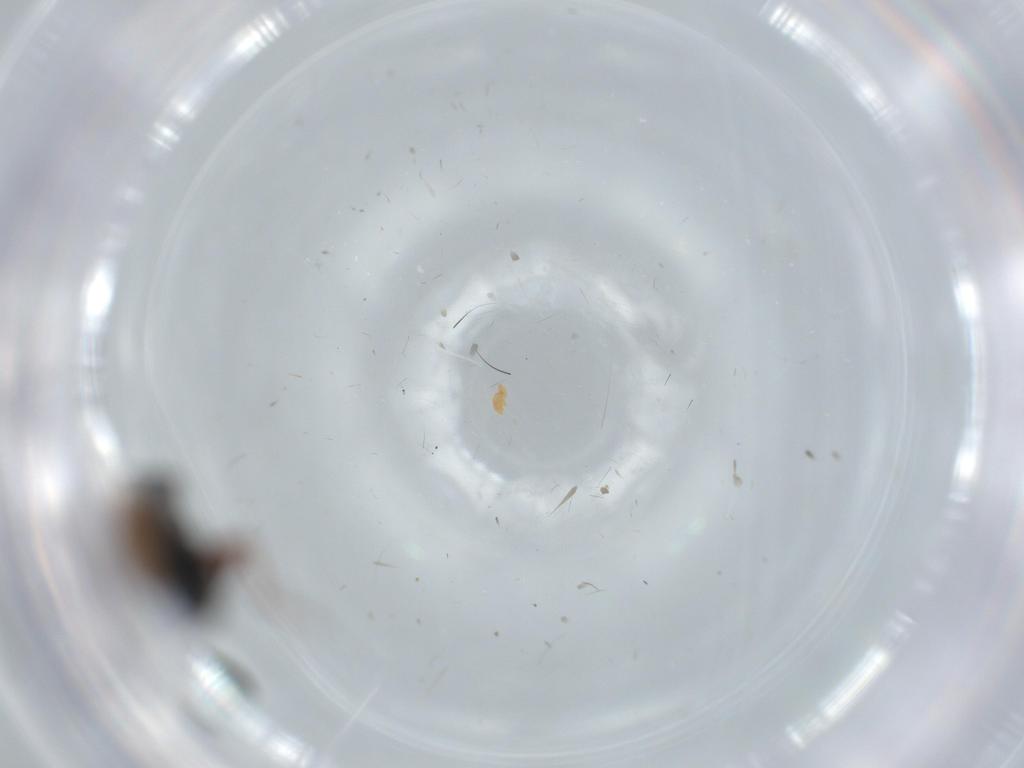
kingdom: Animalia
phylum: Arthropoda
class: Insecta
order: Hymenoptera
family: Diapriidae
